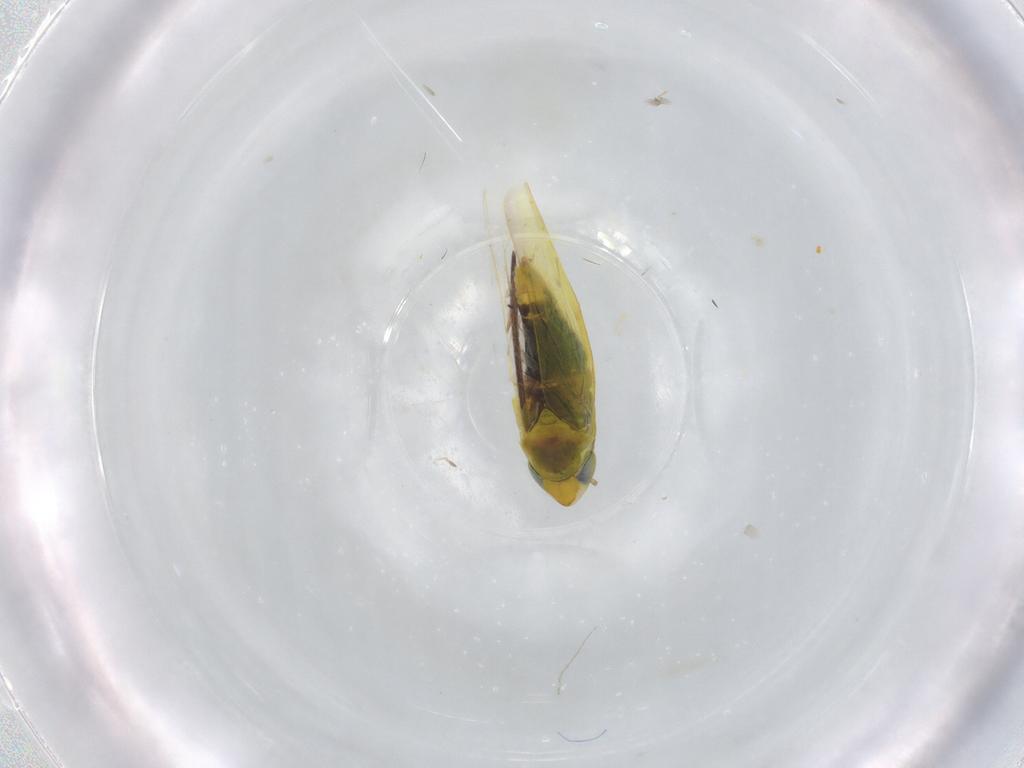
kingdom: Animalia
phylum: Arthropoda
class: Insecta
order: Hemiptera
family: Cicadellidae
